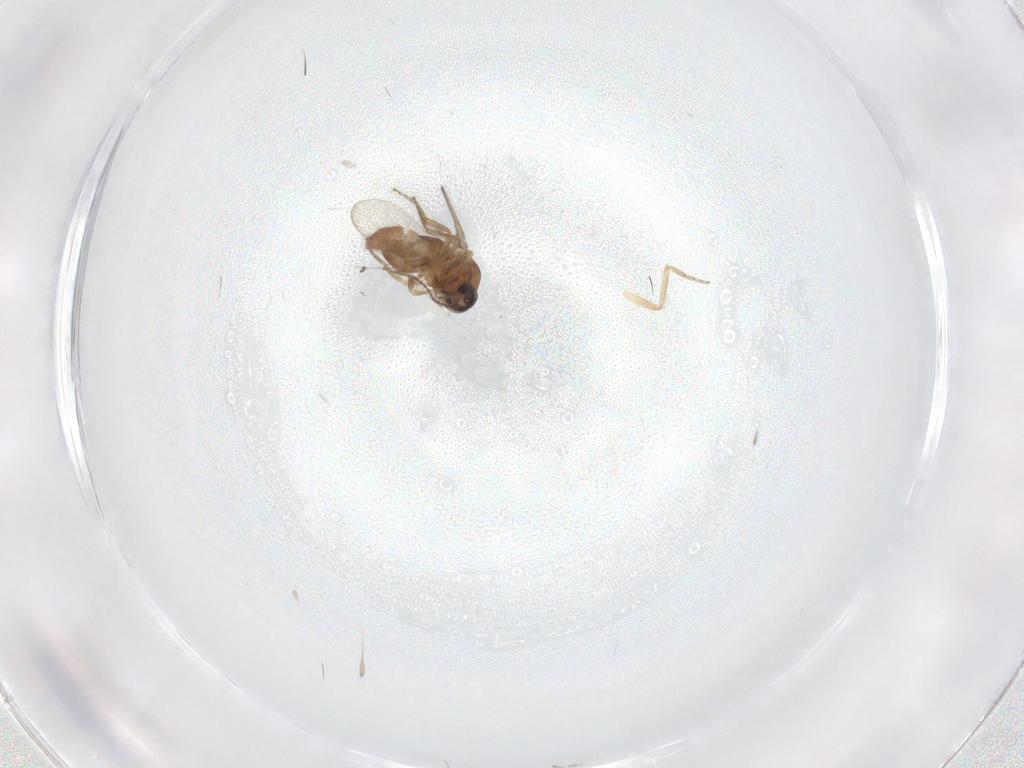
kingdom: Animalia
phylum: Arthropoda
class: Insecta
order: Diptera
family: Ceratopogonidae
